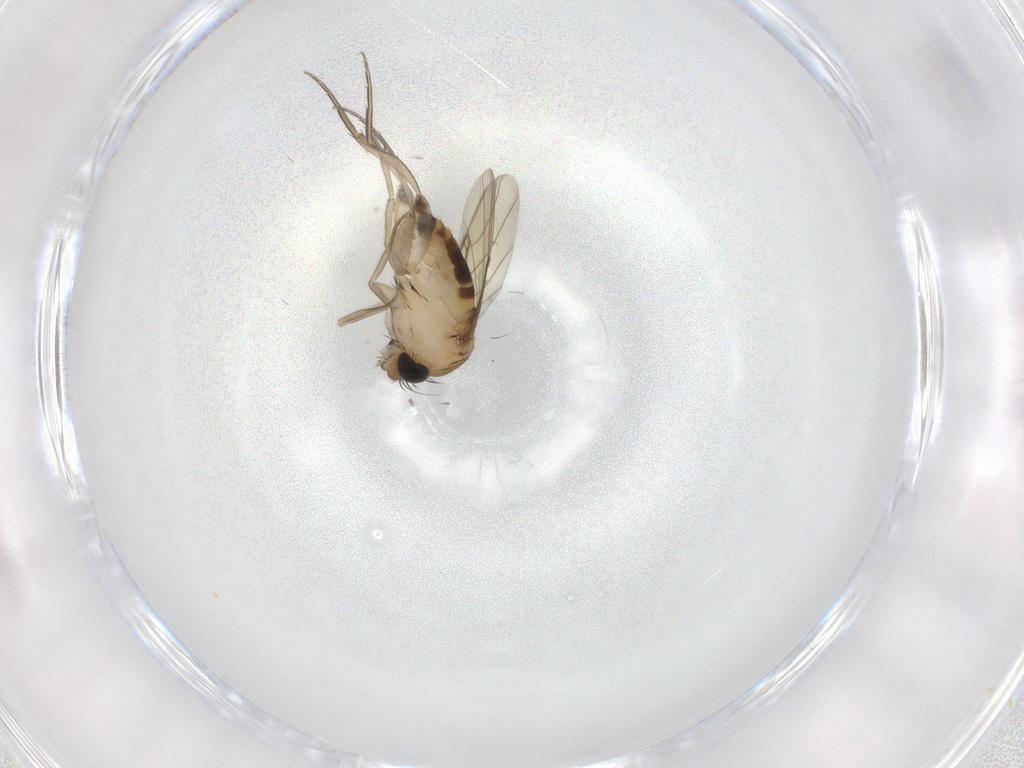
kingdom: Animalia
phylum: Arthropoda
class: Insecta
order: Diptera
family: Phoridae
